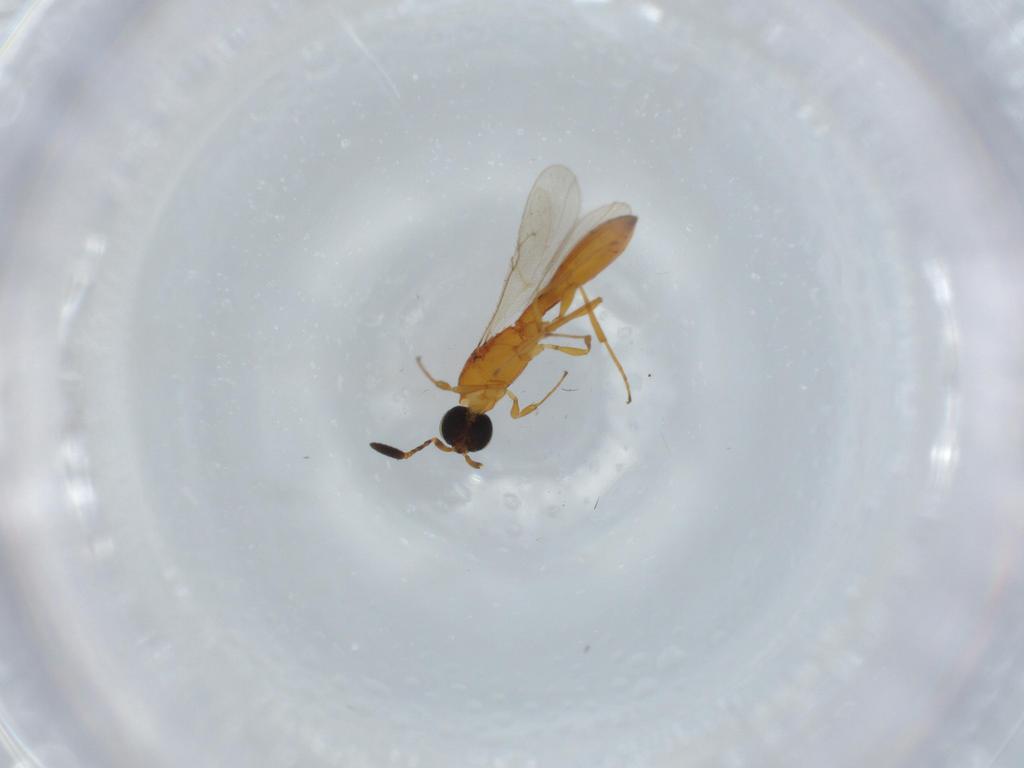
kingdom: Animalia
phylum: Arthropoda
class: Insecta
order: Hymenoptera
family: Scelionidae
